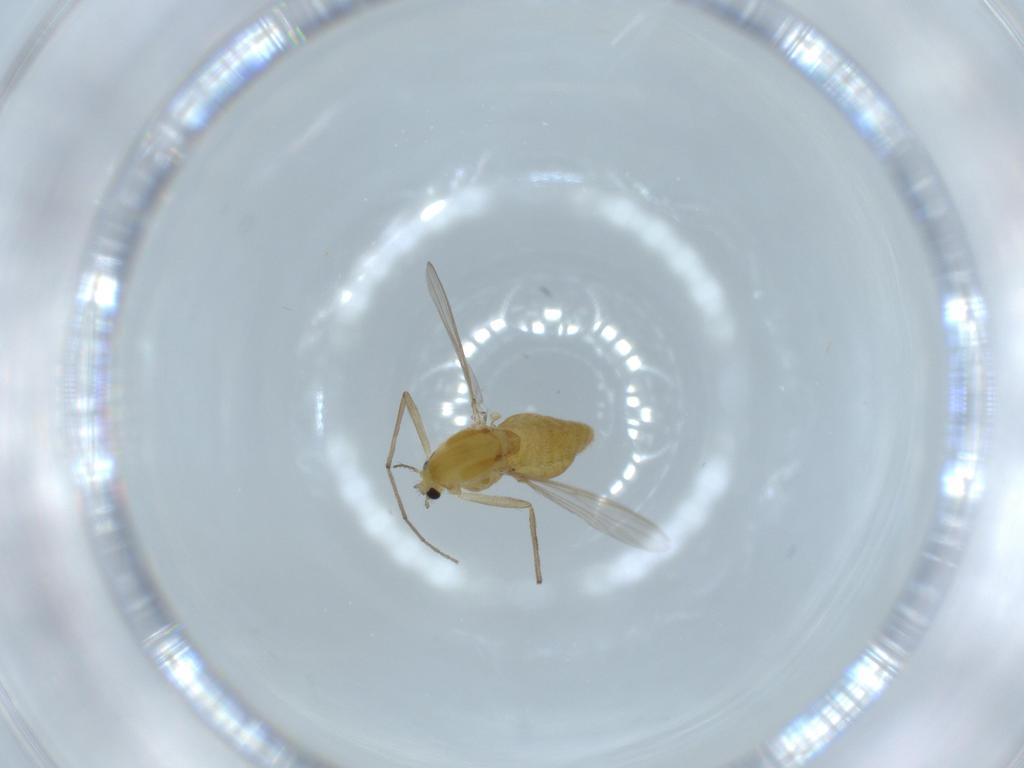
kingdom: Animalia
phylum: Arthropoda
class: Insecta
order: Diptera
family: Chironomidae
